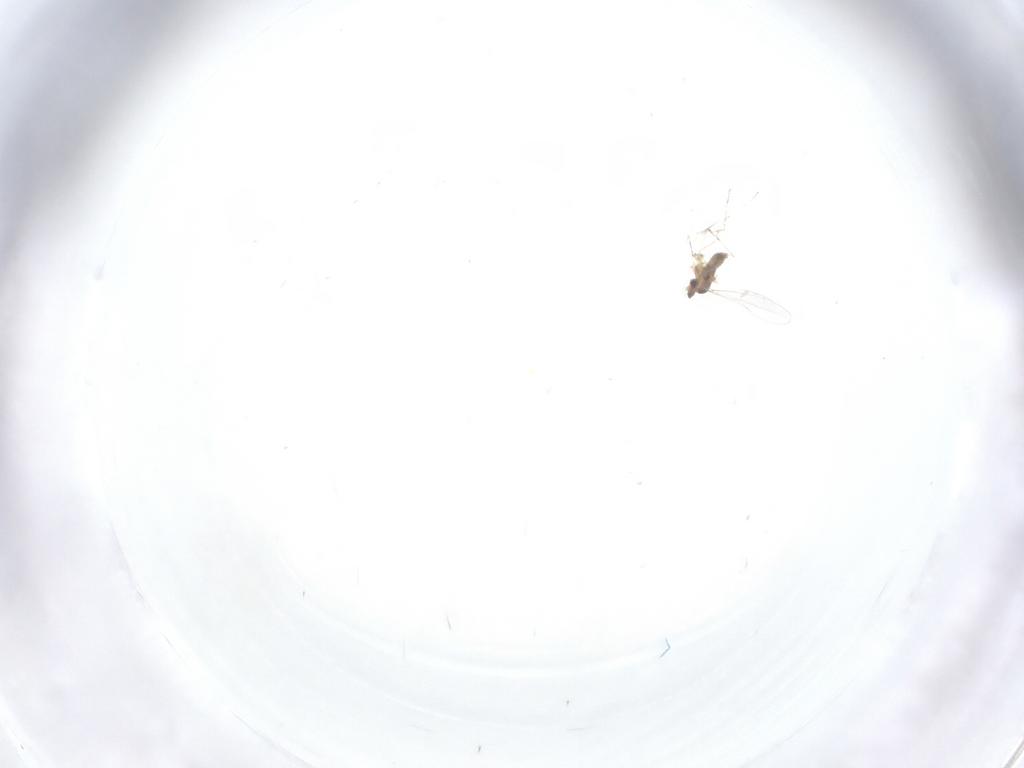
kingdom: Animalia
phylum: Arthropoda
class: Insecta
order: Diptera
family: Cecidomyiidae
